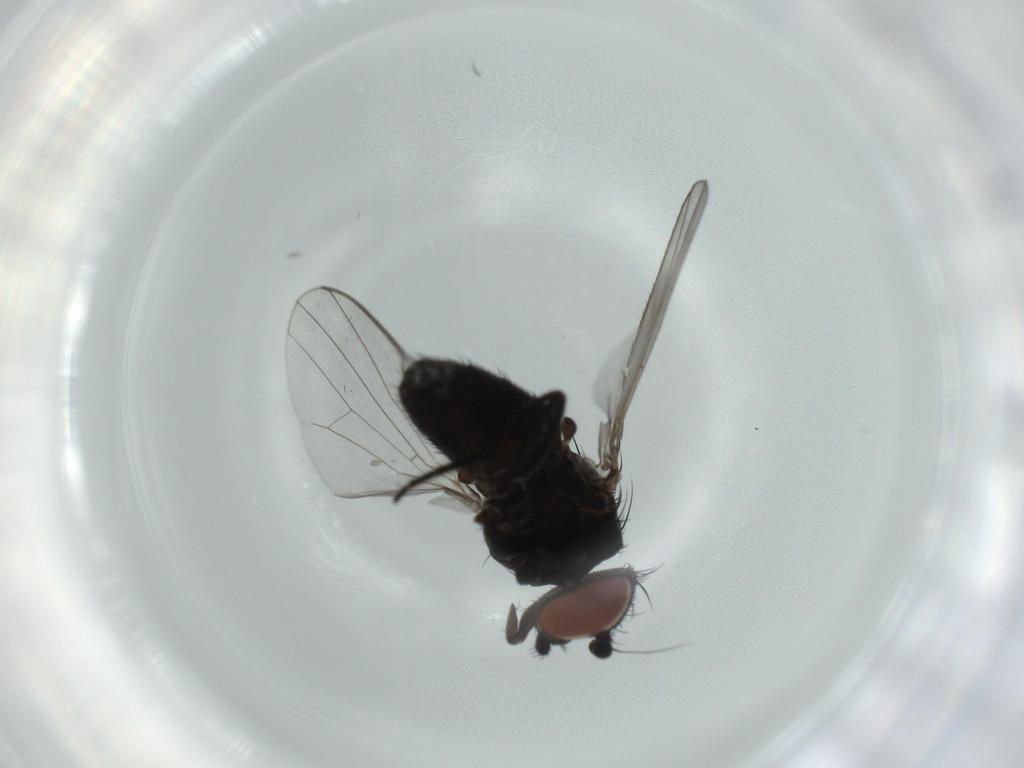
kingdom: Animalia
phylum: Arthropoda
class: Insecta
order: Diptera
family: Milichiidae
